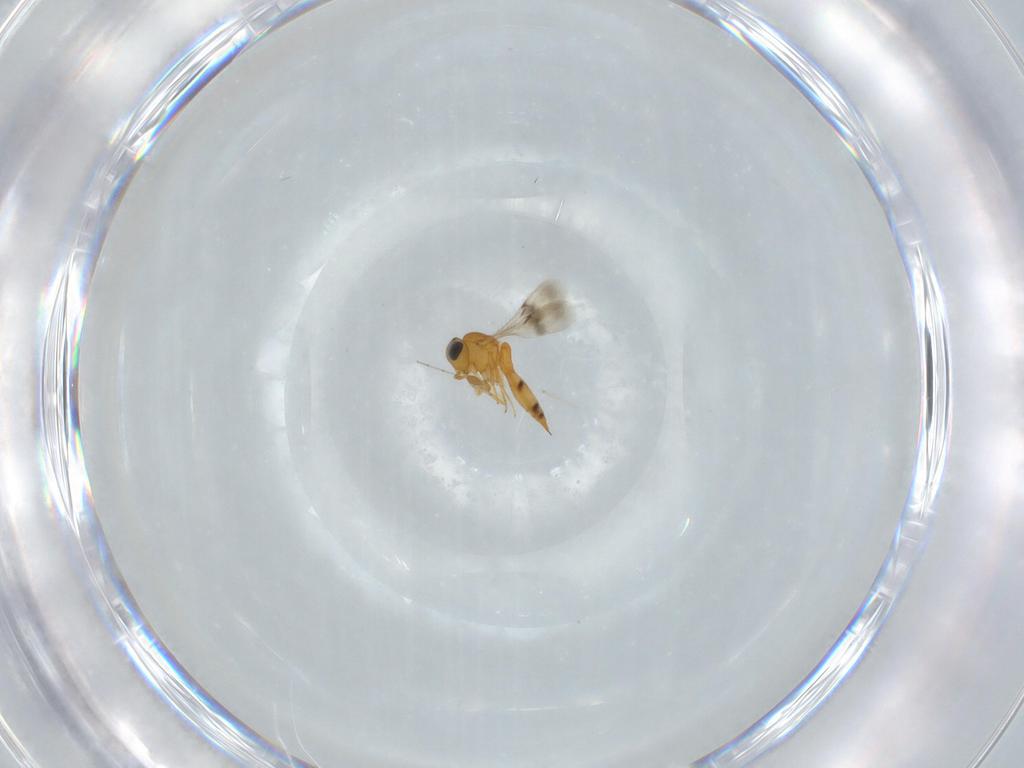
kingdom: Animalia
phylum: Arthropoda
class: Insecta
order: Hymenoptera
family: Scelionidae
